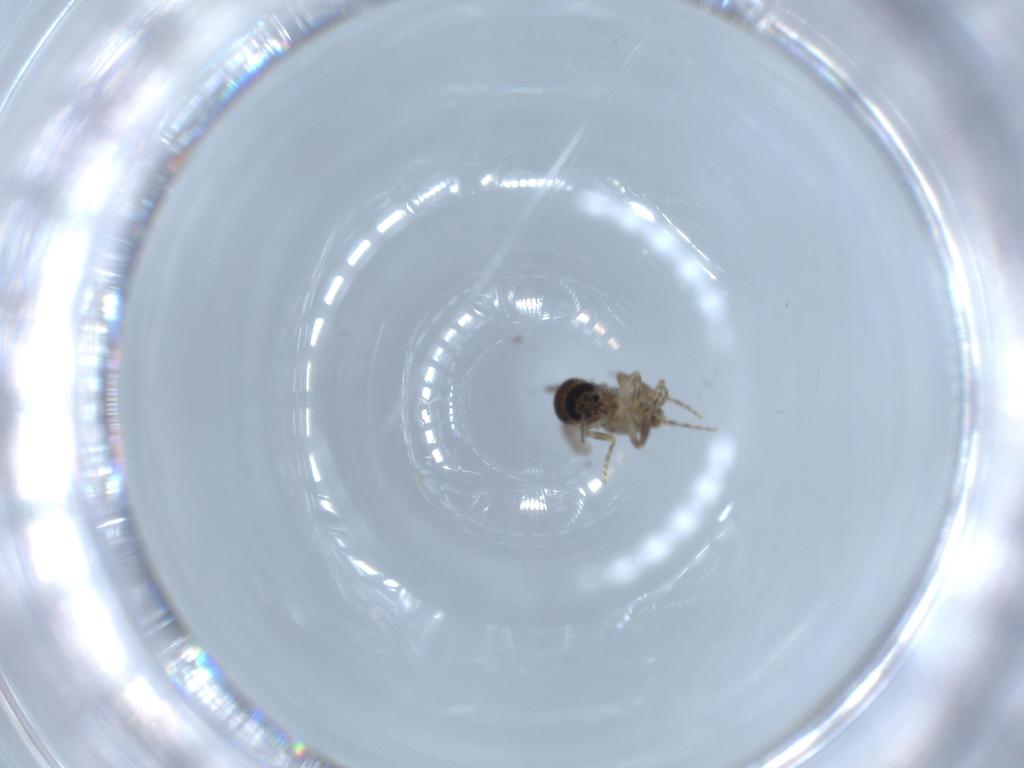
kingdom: Animalia
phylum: Arthropoda
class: Insecta
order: Diptera
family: Ceratopogonidae
